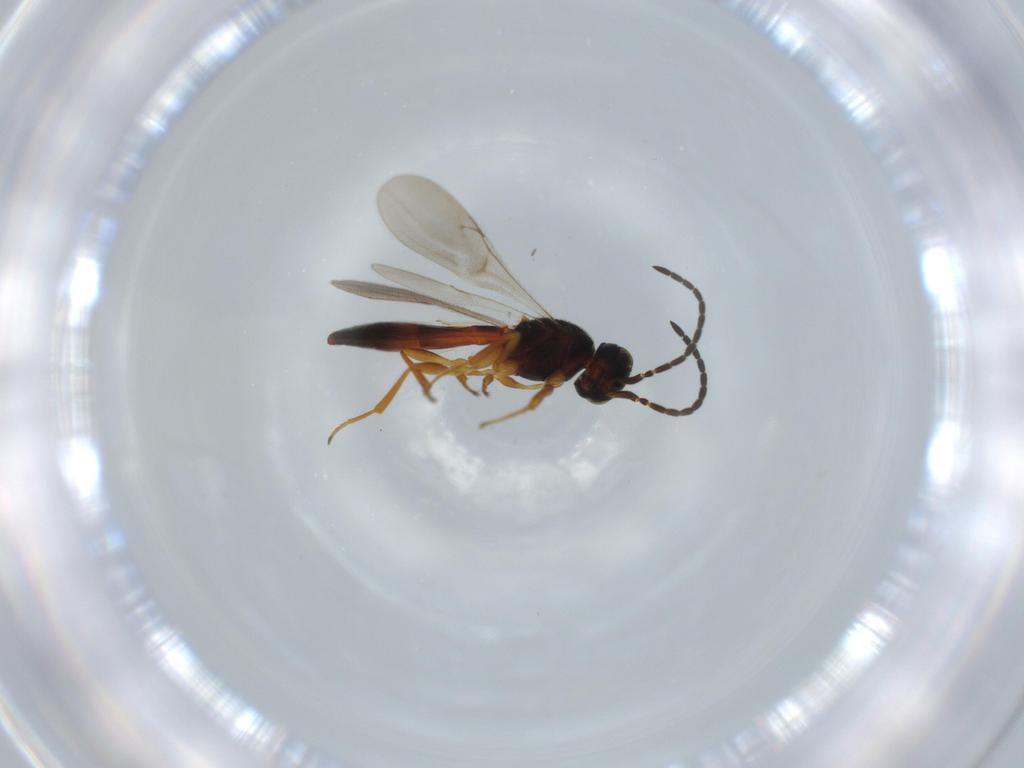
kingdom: Animalia
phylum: Arthropoda
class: Insecta
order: Hymenoptera
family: Scelionidae
